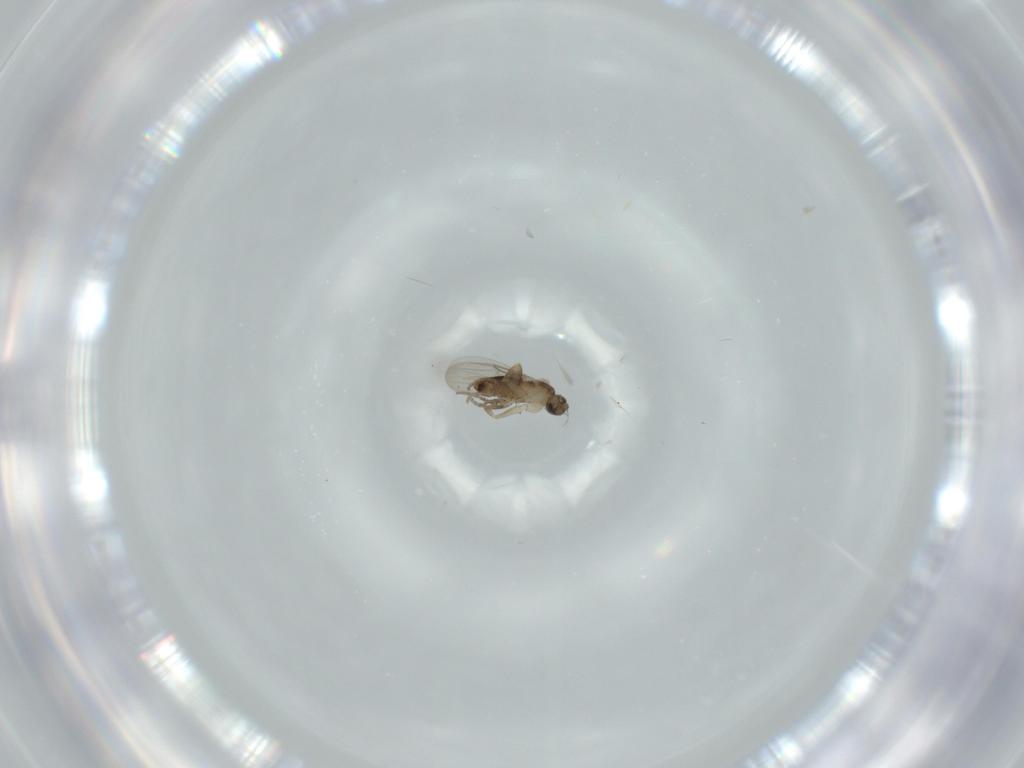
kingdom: Animalia
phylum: Arthropoda
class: Insecta
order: Diptera
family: Phoridae
